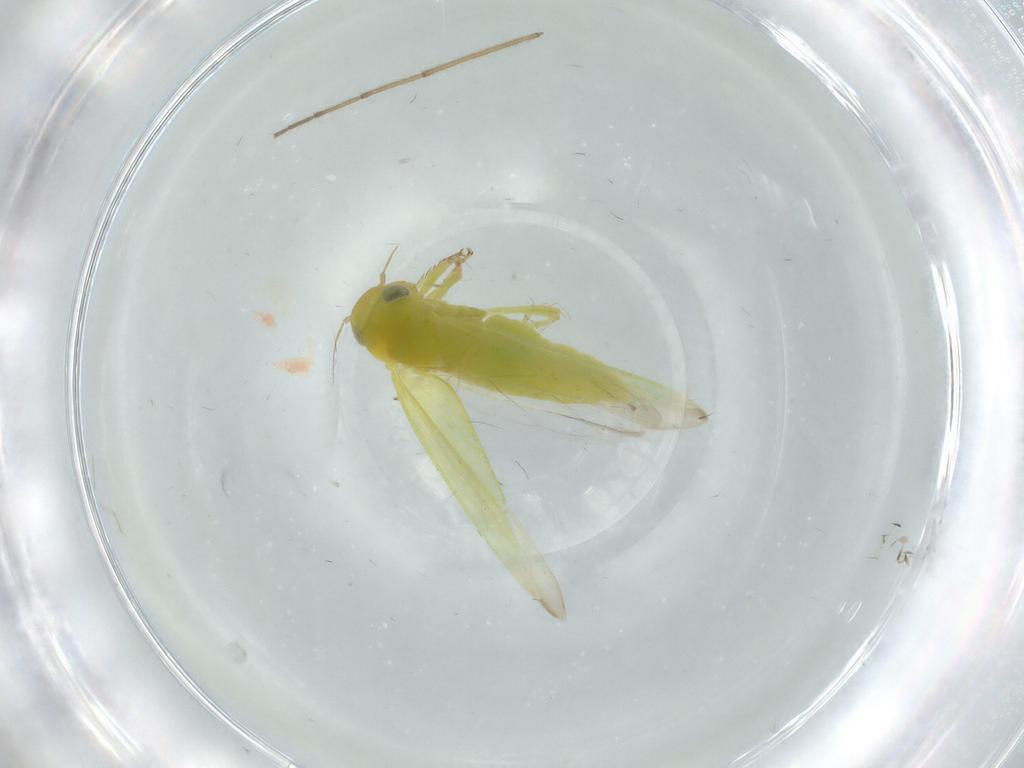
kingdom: Animalia
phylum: Arthropoda
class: Insecta
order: Hemiptera
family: Cicadellidae
